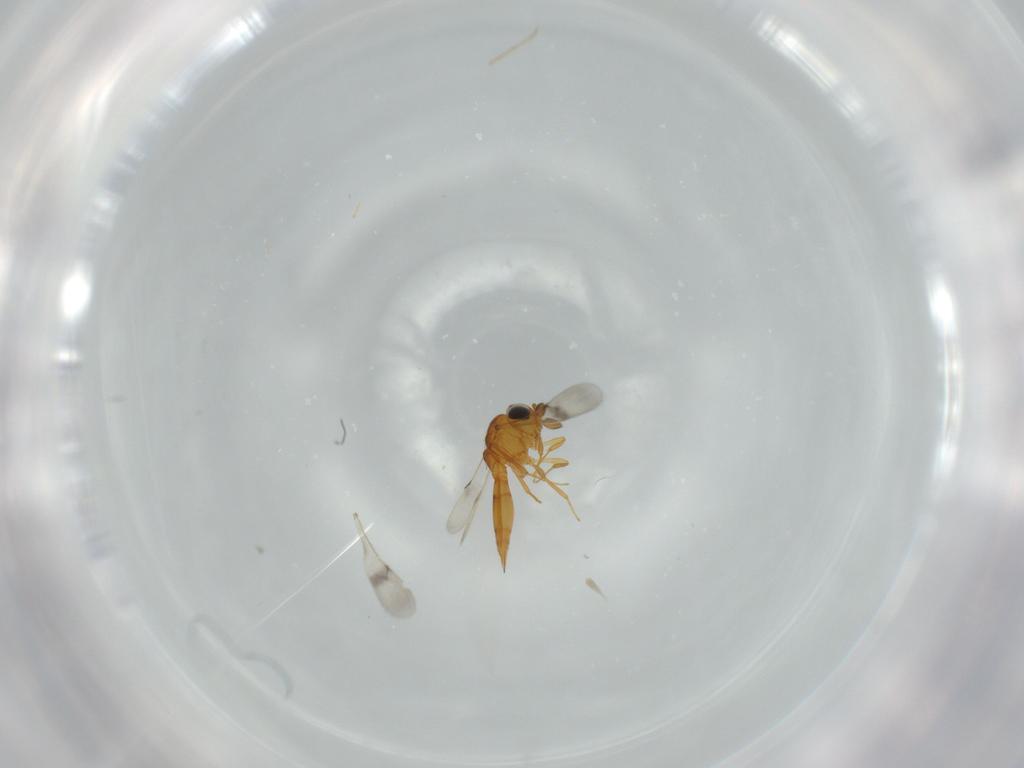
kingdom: Animalia
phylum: Arthropoda
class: Insecta
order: Hymenoptera
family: Scelionidae
